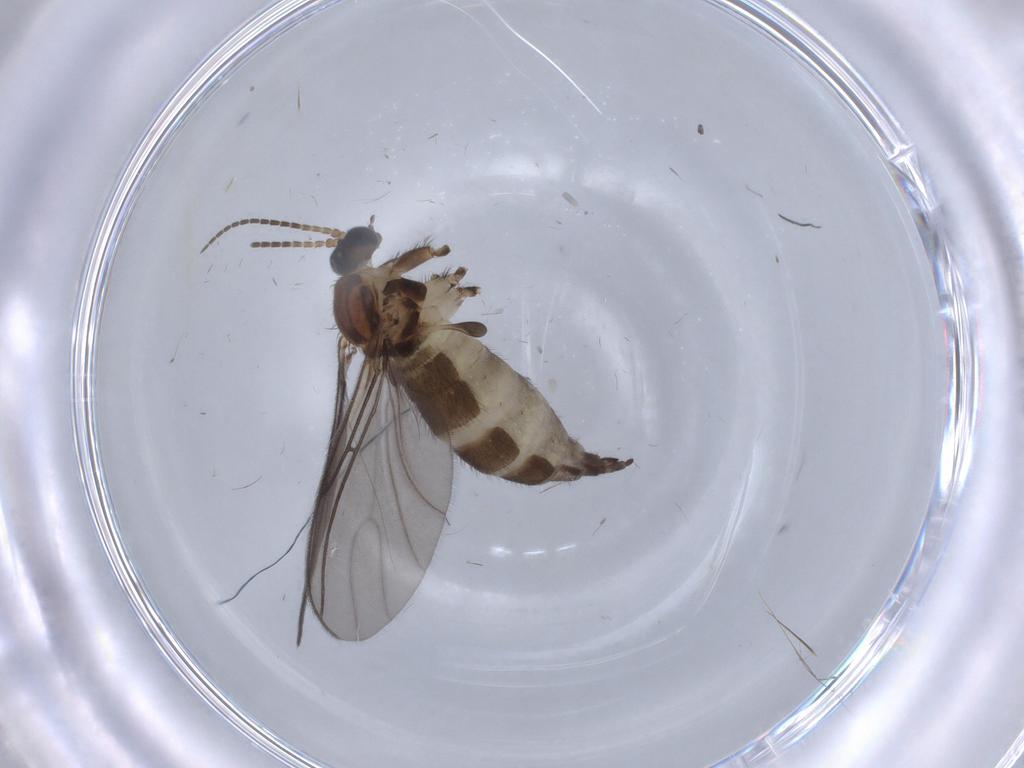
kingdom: Animalia
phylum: Arthropoda
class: Insecta
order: Diptera
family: Sciaridae
